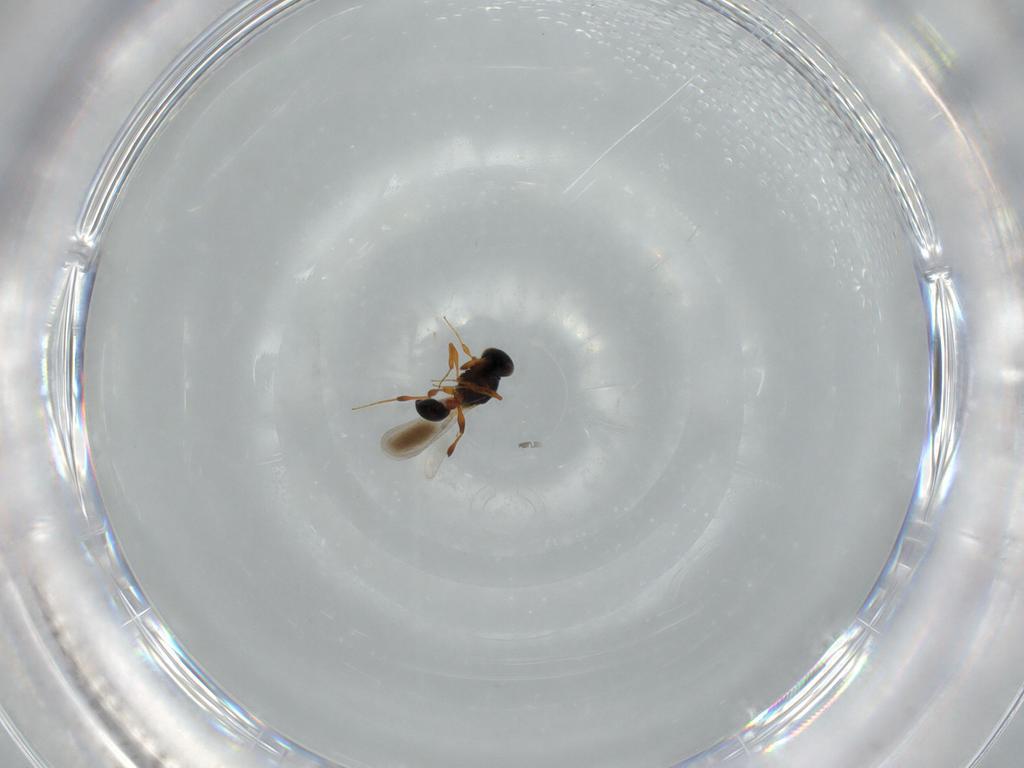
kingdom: Animalia
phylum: Arthropoda
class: Insecta
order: Hymenoptera
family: Platygastridae
